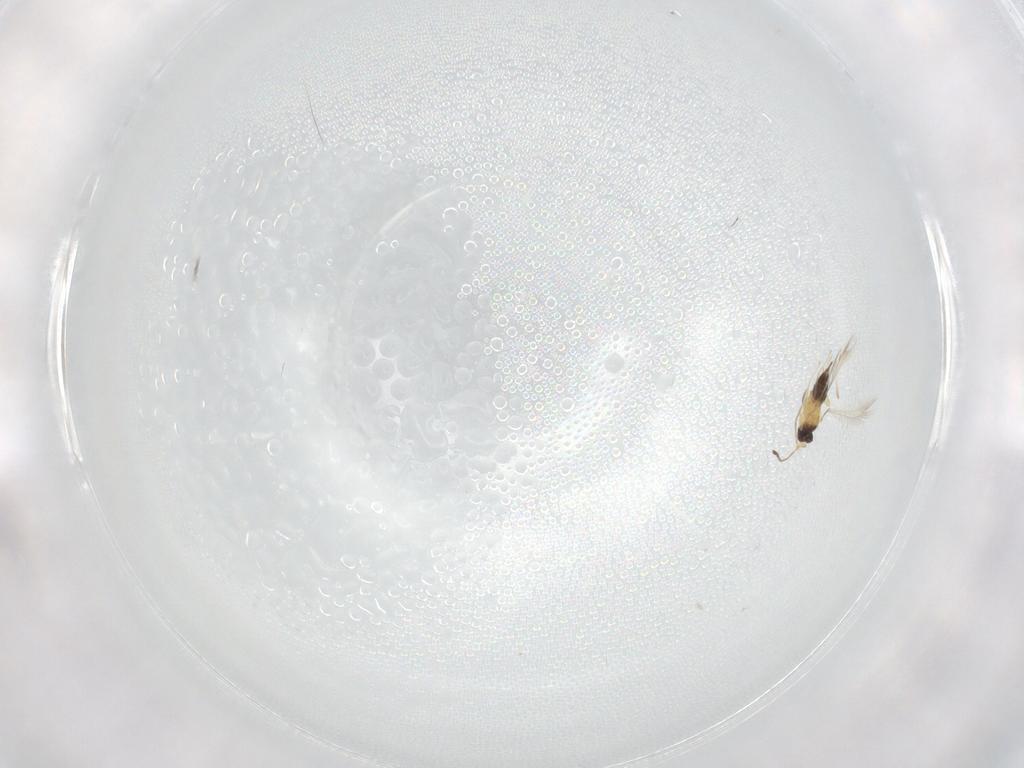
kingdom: Animalia
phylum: Arthropoda
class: Insecta
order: Hymenoptera
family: Mymaridae
